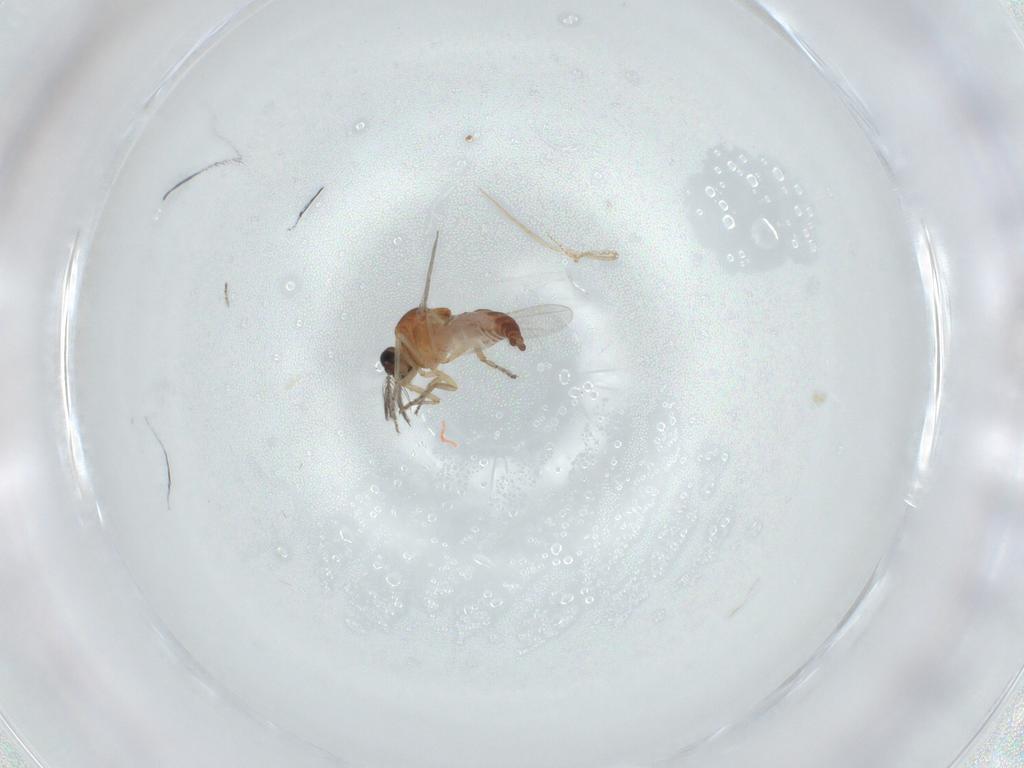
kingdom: Animalia
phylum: Arthropoda
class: Insecta
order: Diptera
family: Ceratopogonidae
